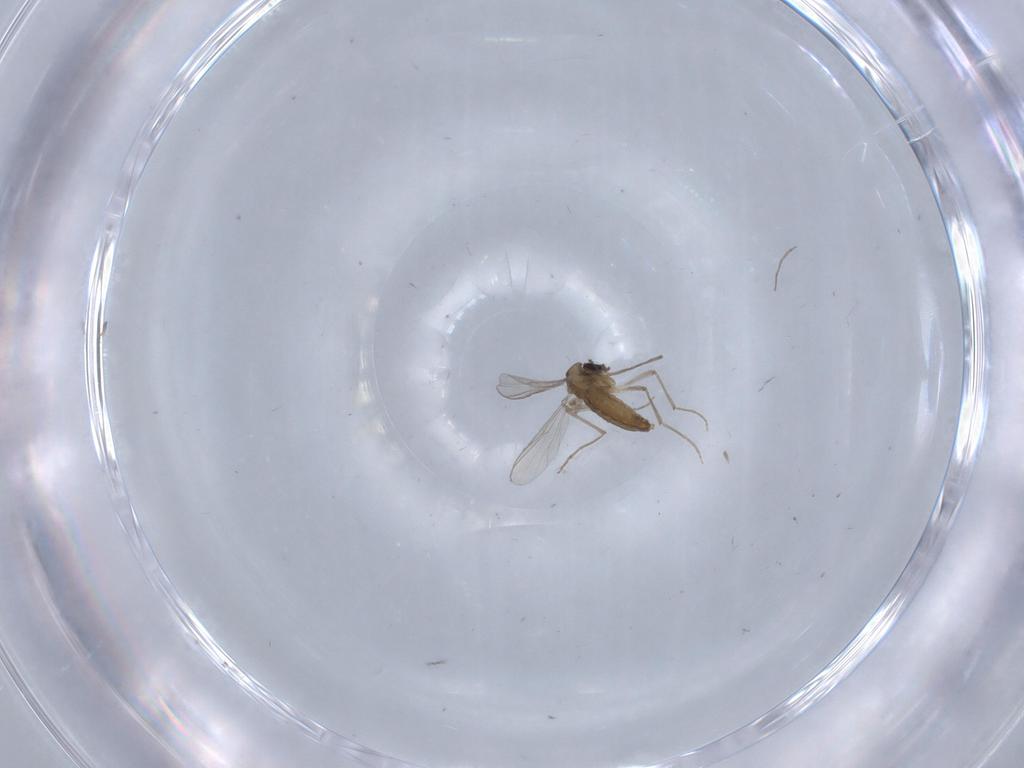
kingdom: Animalia
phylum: Arthropoda
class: Insecta
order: Diptera
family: Chironomidae
